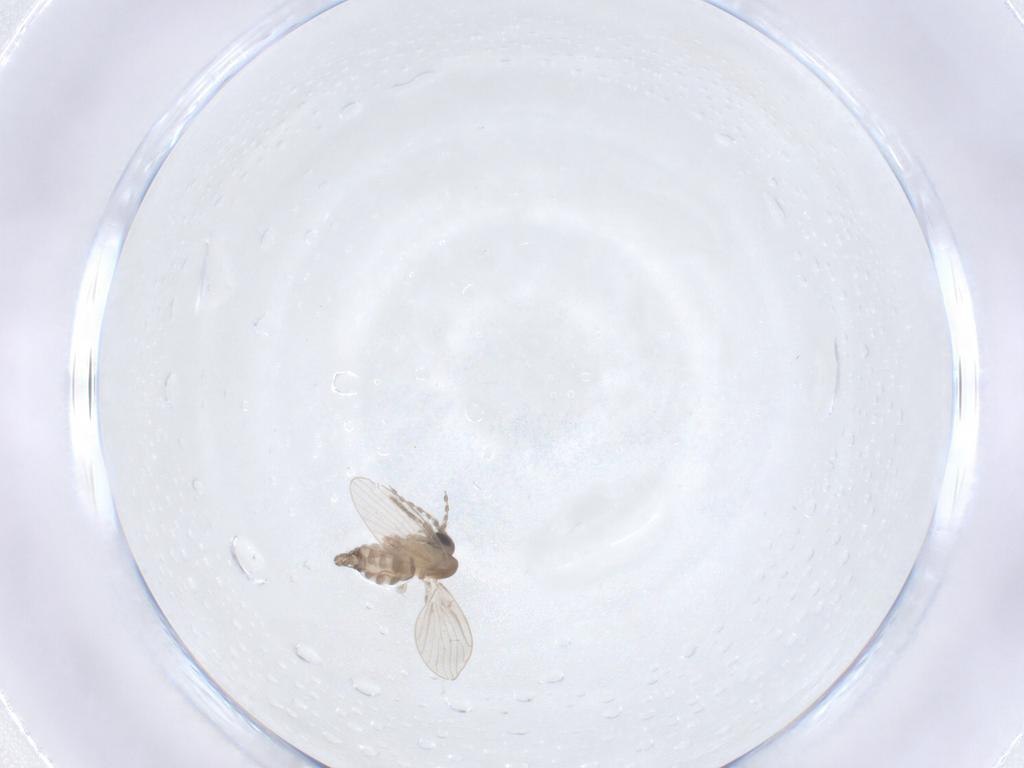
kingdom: Animalia
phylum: Arthropoda
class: Insecta
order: Diptera
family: Psychodidae
